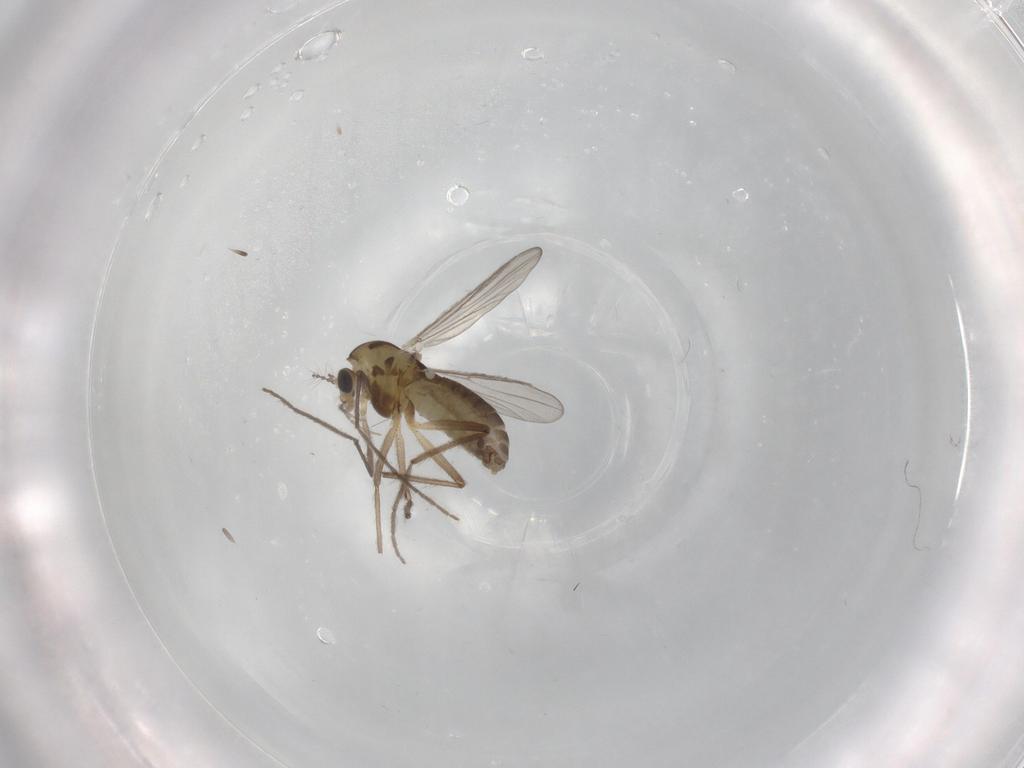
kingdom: Animalia
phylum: Arthropoda
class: Insecta
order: Diptera
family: Chironomidae
